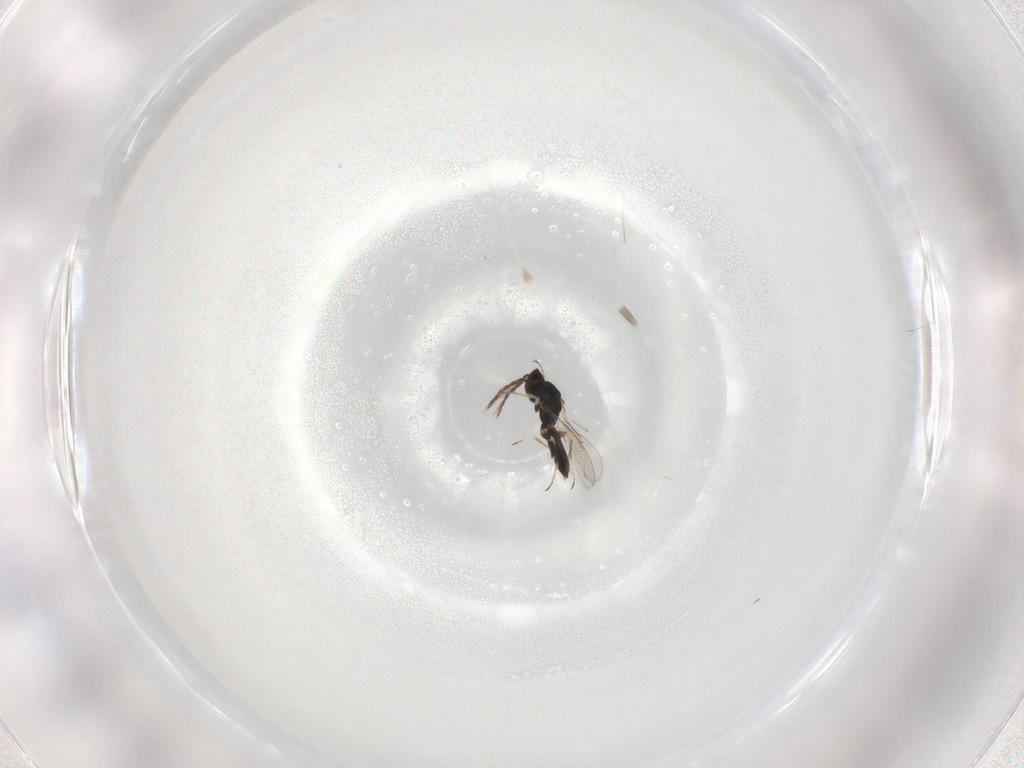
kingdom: Animalia
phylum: Arthropoda
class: Insecta
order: Hymenoptera
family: Eulophidae
